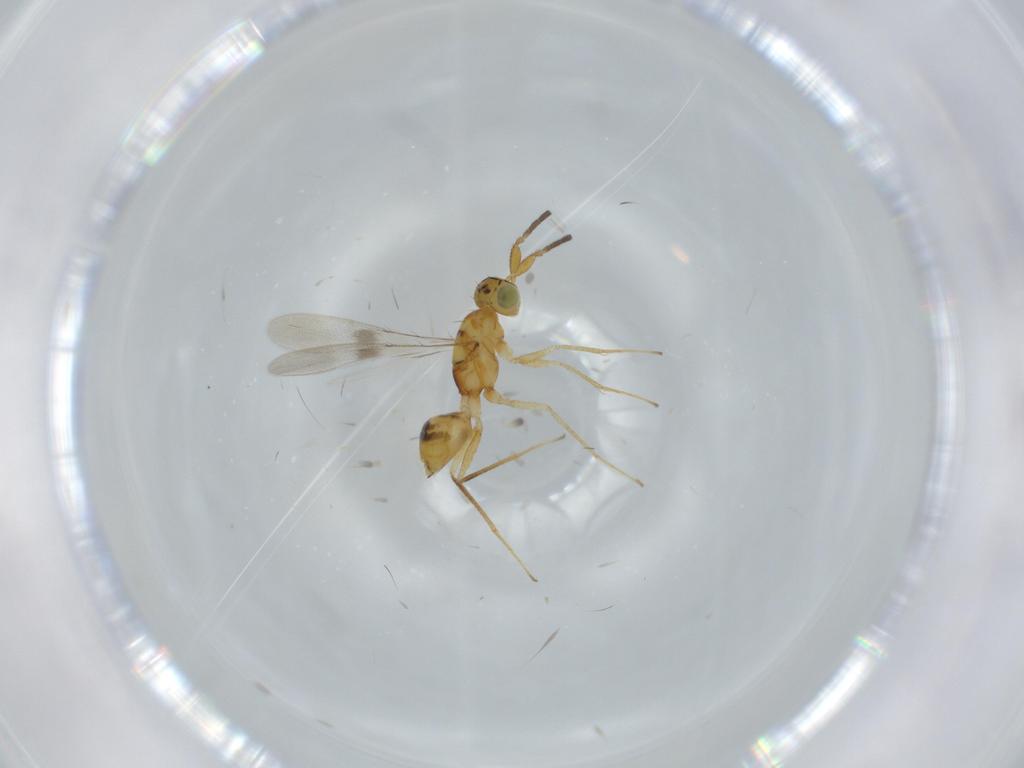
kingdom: Animalia
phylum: Arthropoda
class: Insecta
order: Hymenoptera
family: Mymaridae
